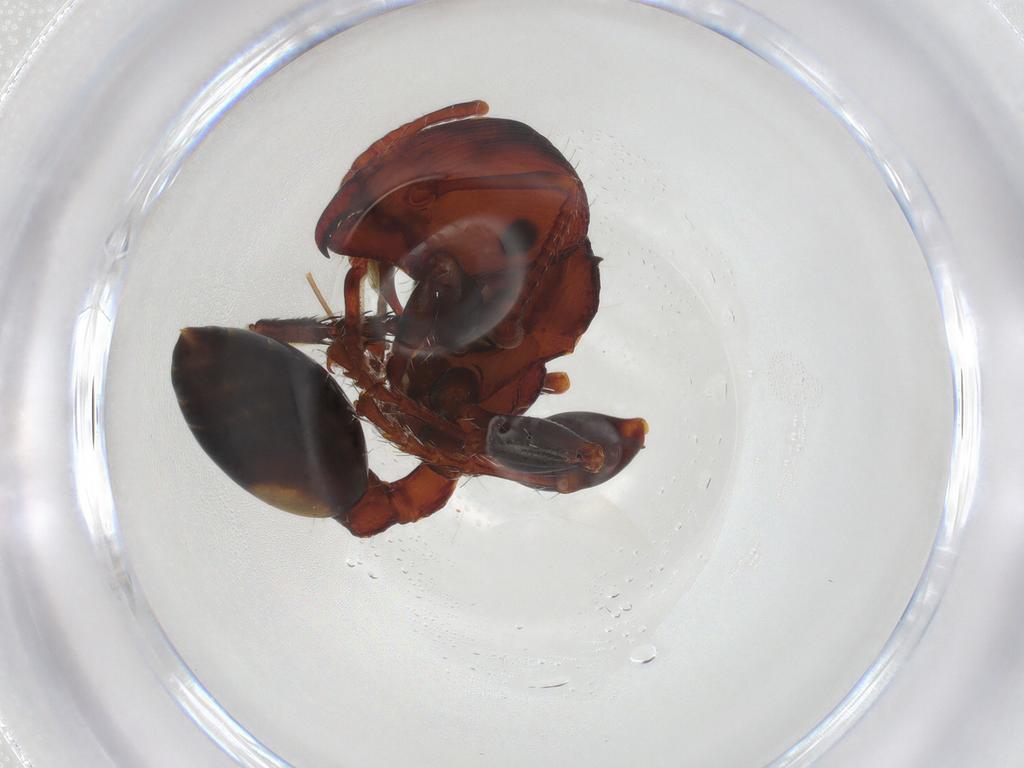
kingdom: Animalia
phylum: Arthropoda
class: Insecta
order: Hymenoptera
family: Formicidae
